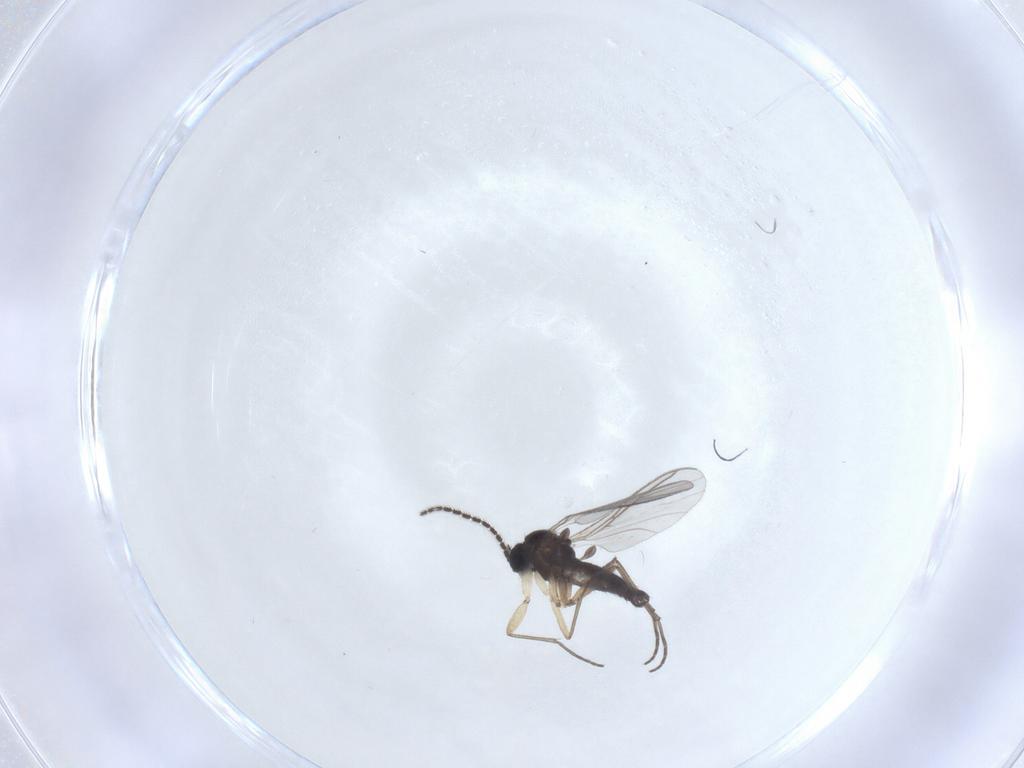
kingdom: Animalia
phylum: Arthropoda
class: Insecta
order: Diptera
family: Sciaridae
